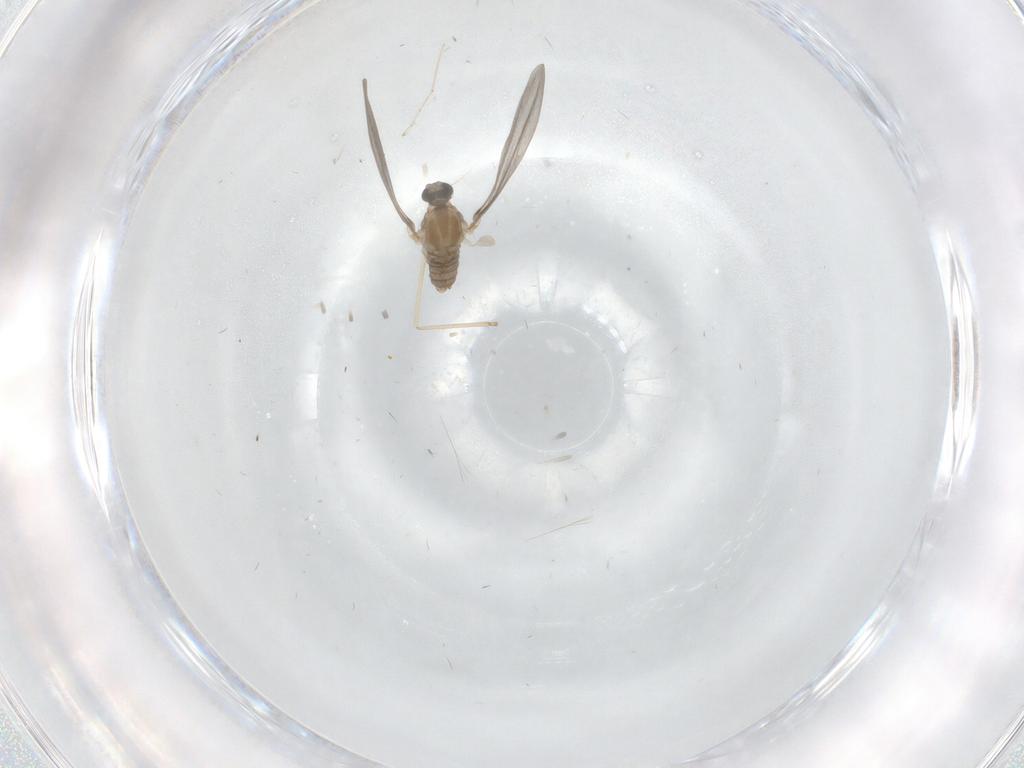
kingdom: Animalia
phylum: Arthropoda
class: Insecta
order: Diptera
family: Cecidomyiidae
